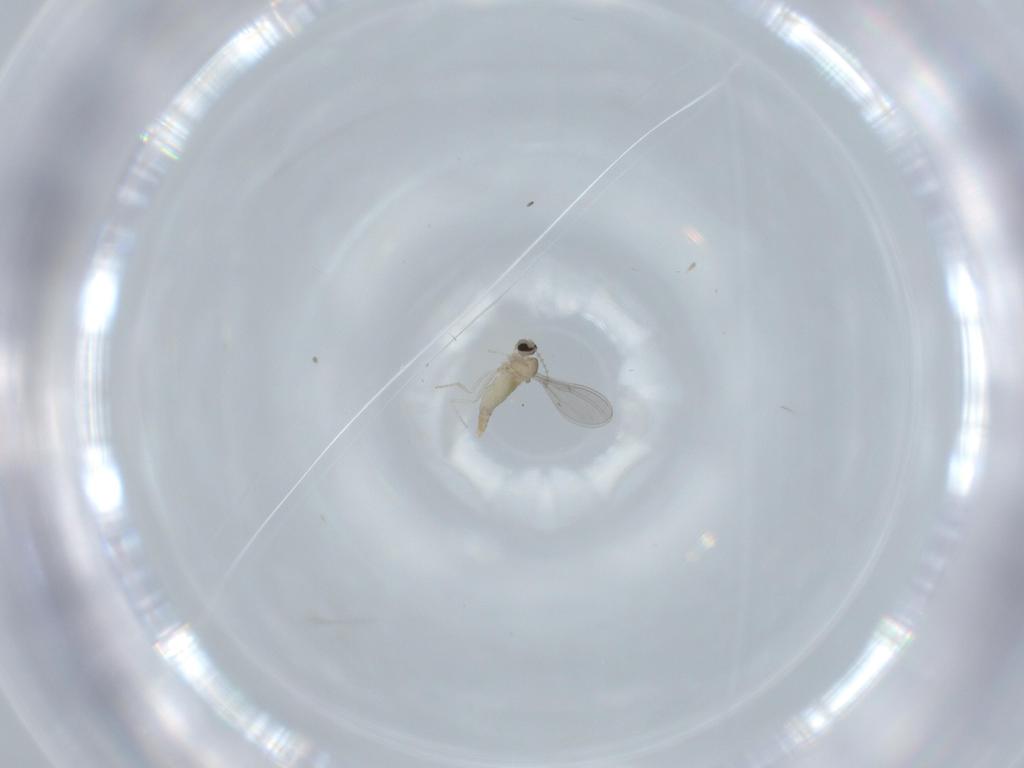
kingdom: Animalia
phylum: Arthropoda
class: Insecta
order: Diptera
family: Cecidomyiidae
